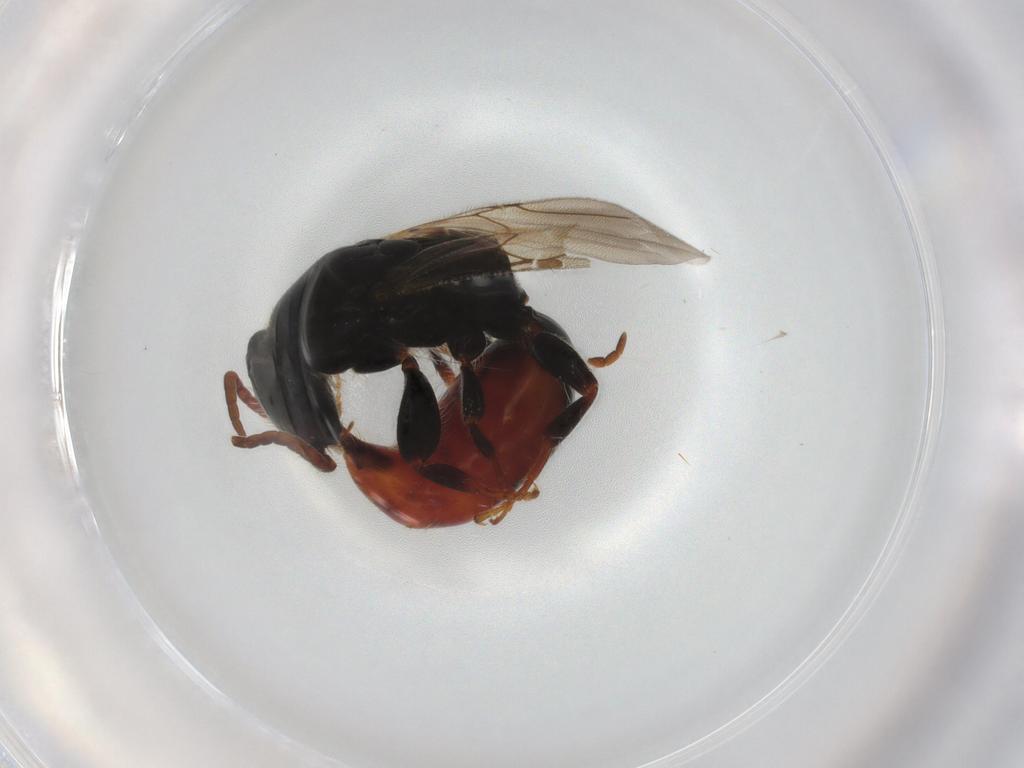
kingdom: Animalia
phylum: Arthropoda
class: Insecta
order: Hymenoptera
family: Bethylidae
